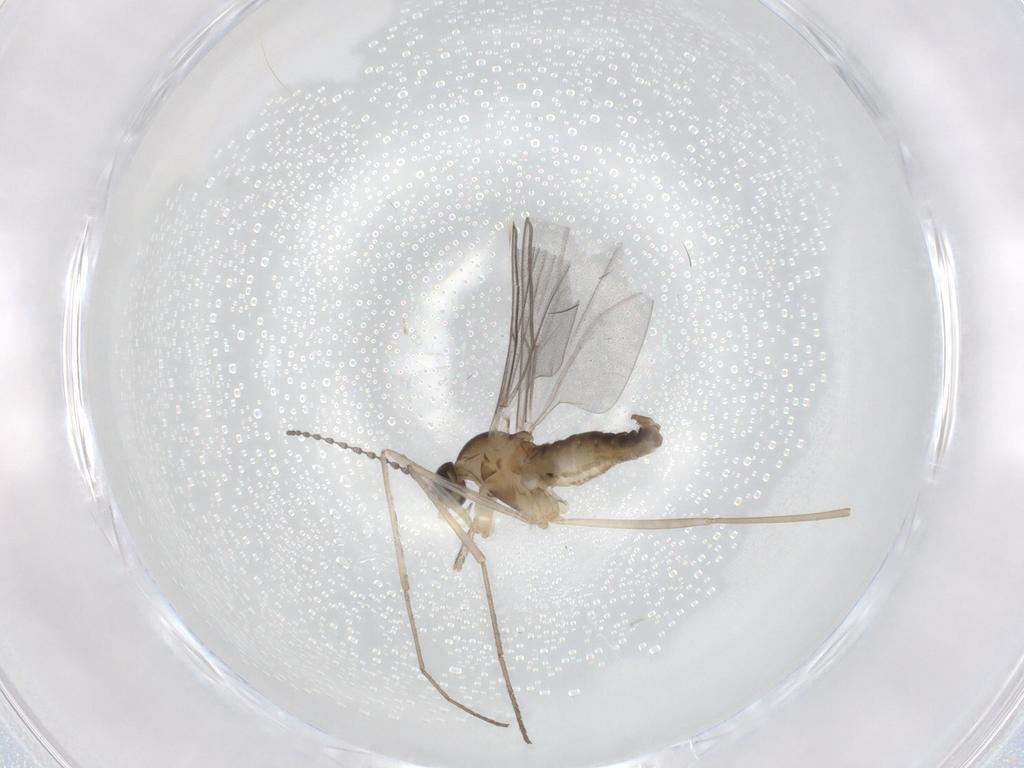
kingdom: Animalia
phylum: Arthropoda
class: Insecta
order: Diptera
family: Cecidomyiidae
